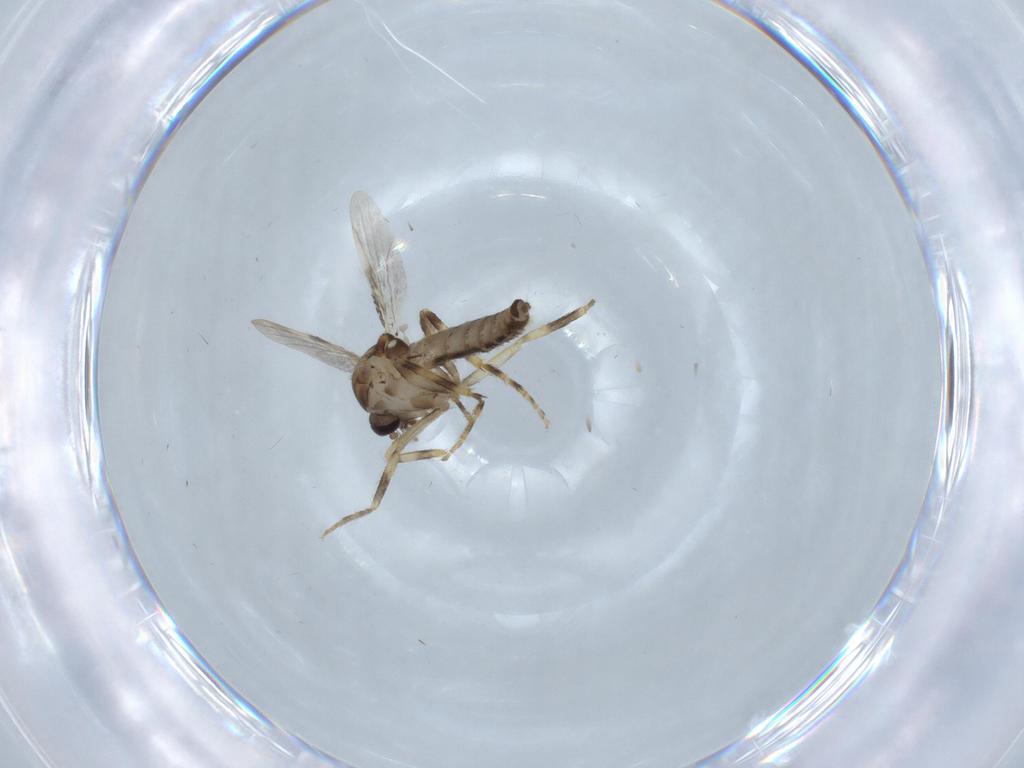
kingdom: Animalia
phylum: Arthropoda
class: Insecta
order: Diptera
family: Ceratopogonidae
